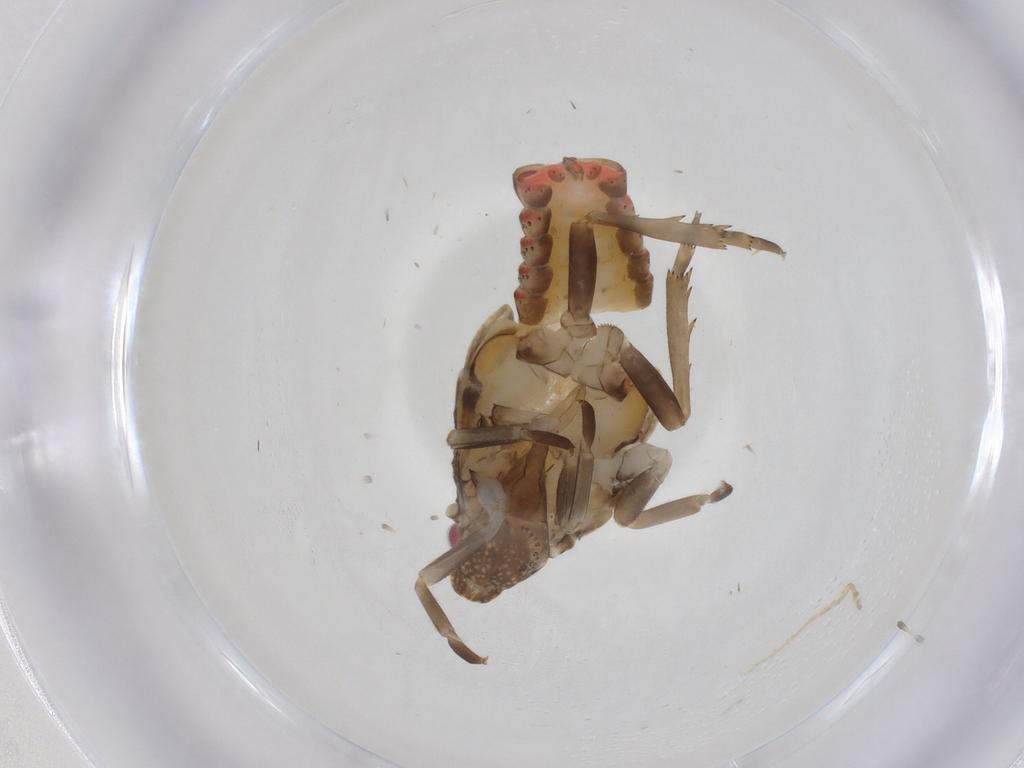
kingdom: Animalia
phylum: Arthropoda
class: Insecta
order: Hemiptera
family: Flatidae
